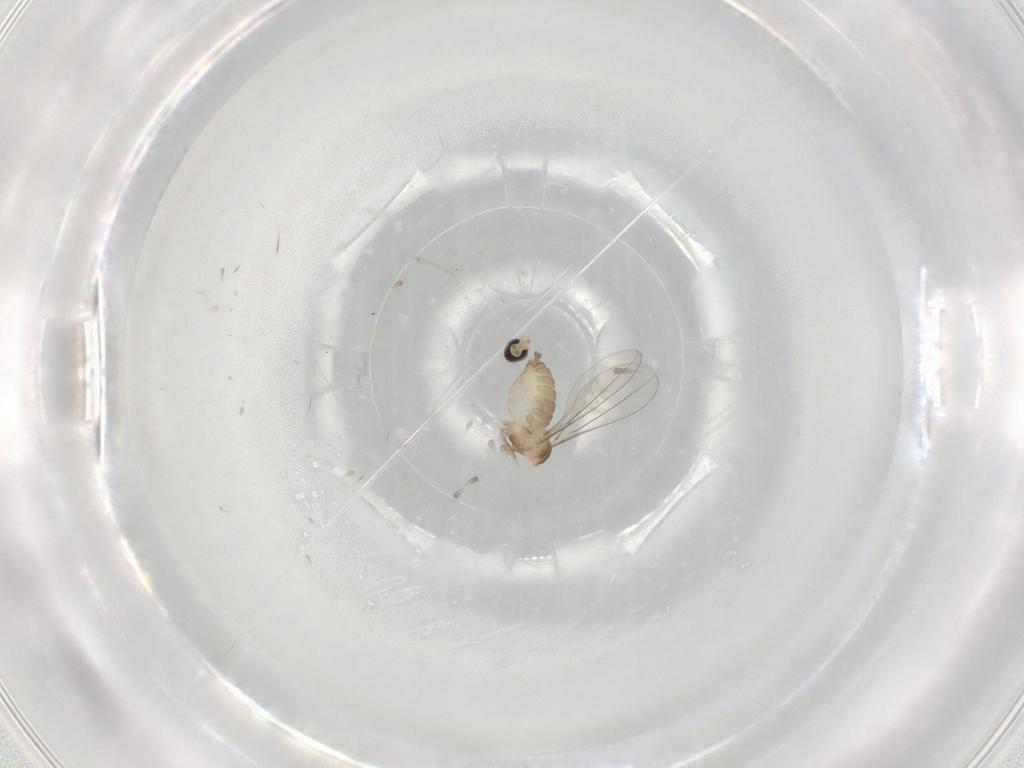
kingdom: Animalia
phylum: Arthropoda
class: Insecta
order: Diptera
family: Cecidomyiidae
